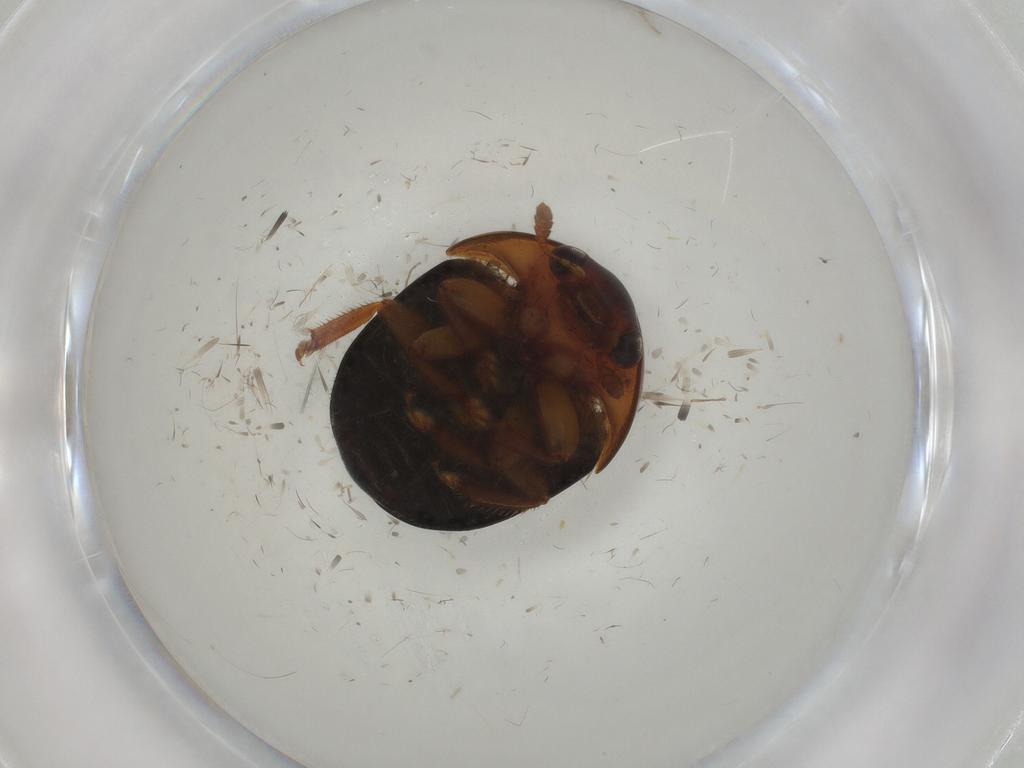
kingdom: Animalia
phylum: Arthropoda
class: Insecta
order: Coleoptera
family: Nitidulidae
